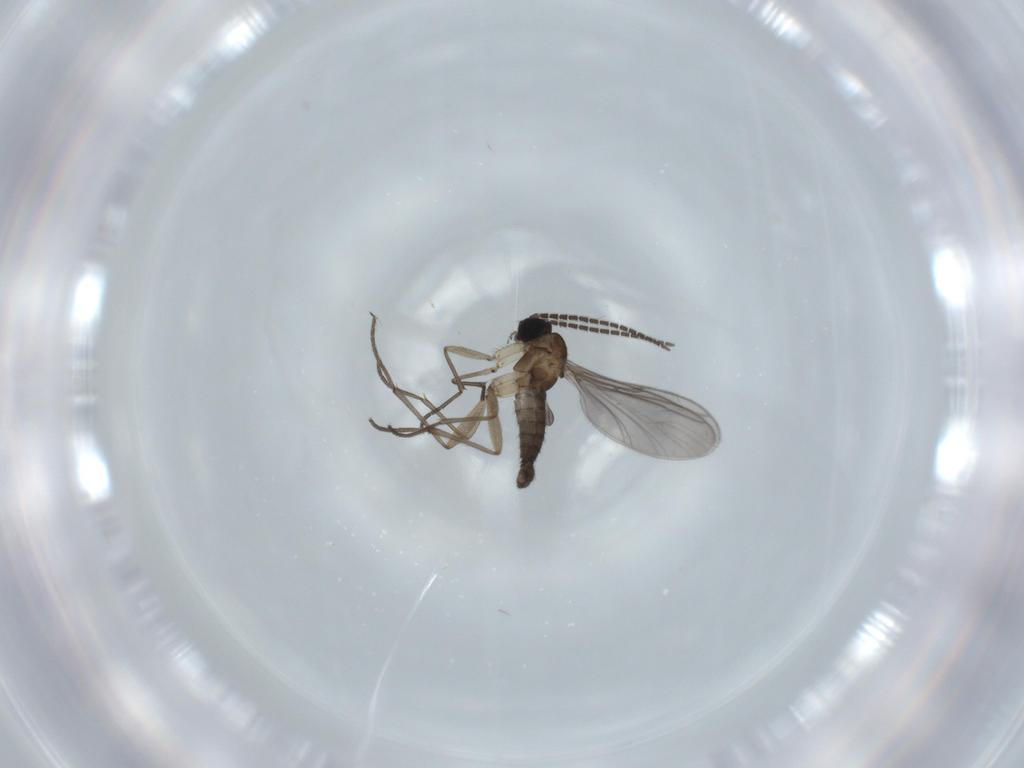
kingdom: Animalia
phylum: Arthropoda
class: Insecta
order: Diptera
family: Sciaridae
